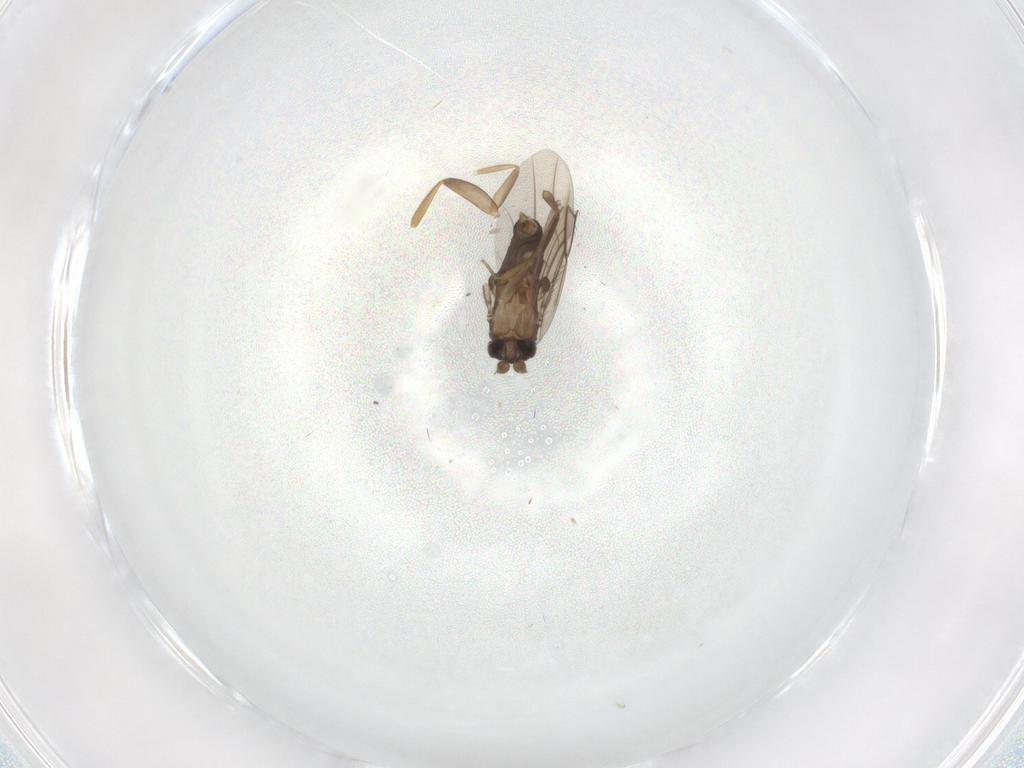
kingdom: Animalia
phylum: Arthropoda
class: Insecta
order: Diptera
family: Phoridae
